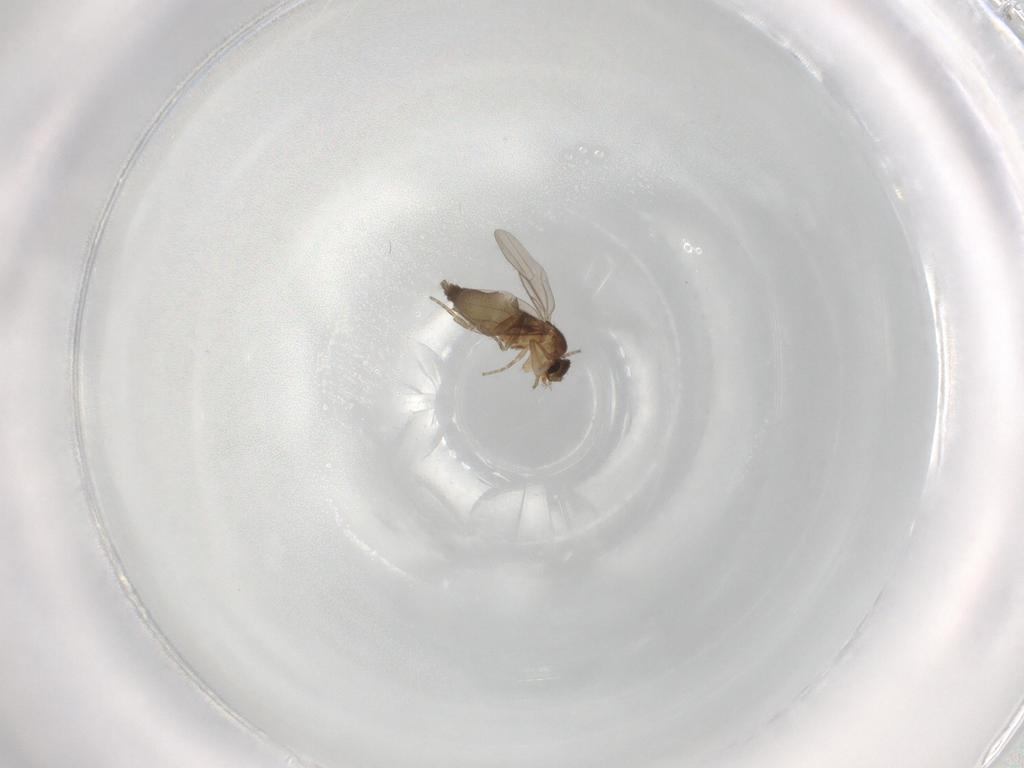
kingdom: Animalia
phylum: Arthropoda
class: Insecta
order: Diptera
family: Phoridae
